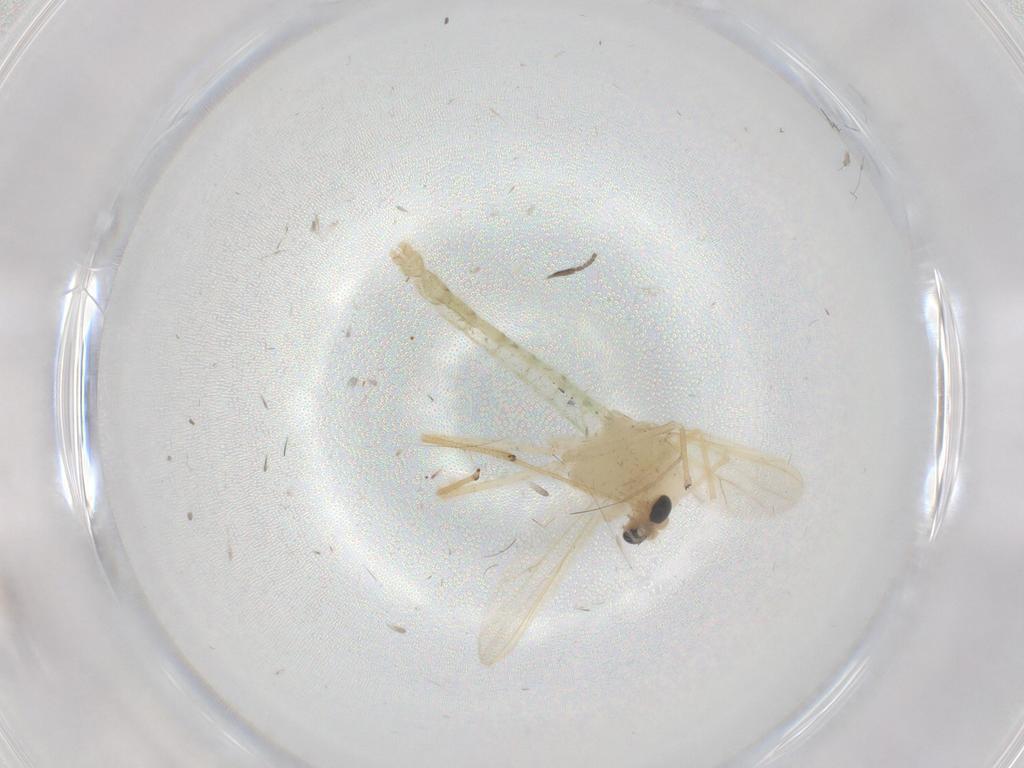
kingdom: Animalia
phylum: Arthropoda
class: Insecta
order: Diptera
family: Chironomidae
